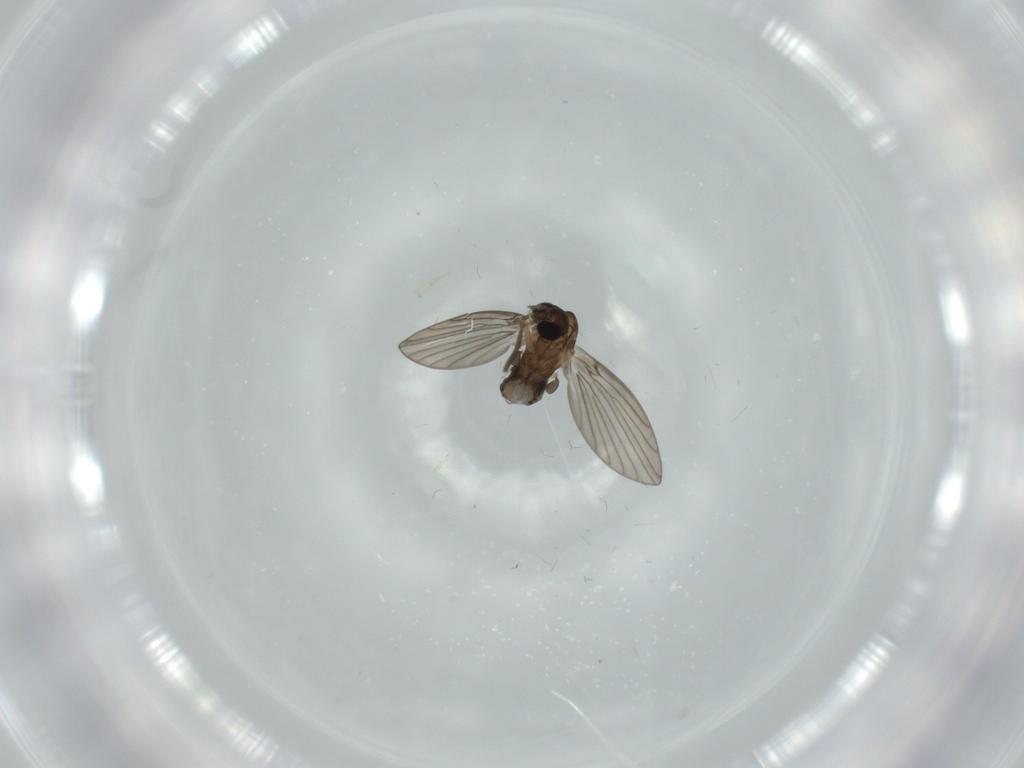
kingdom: Animalia
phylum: Arthropoda
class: Insecta
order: Diptera
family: Psychodidae
